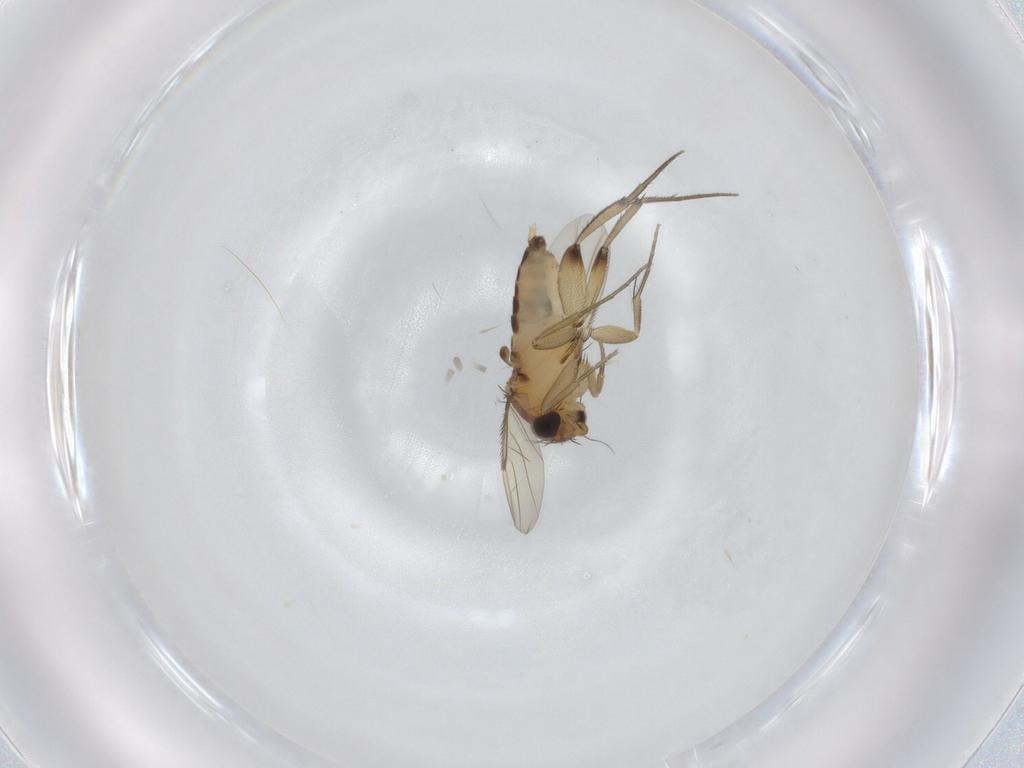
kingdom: Animalia
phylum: Arthropoda
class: Insecta
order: Diptera
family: Phoridae
